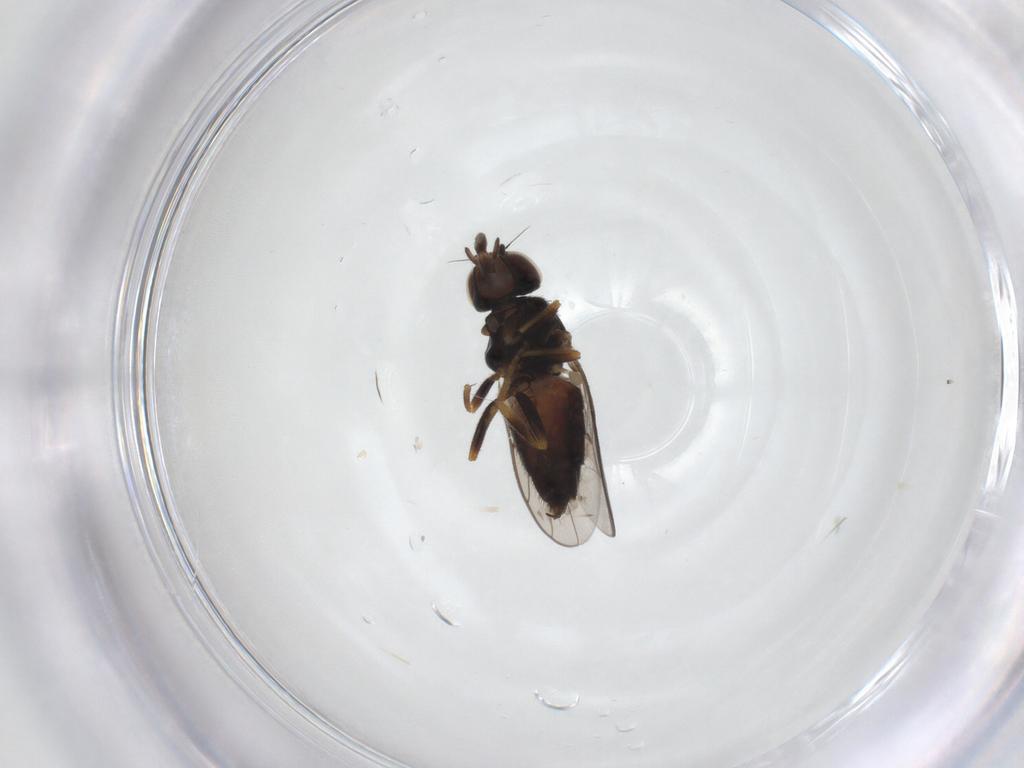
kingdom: Animalia
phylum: Arthropoda
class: Insecta
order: Diptera
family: Chloropidae
